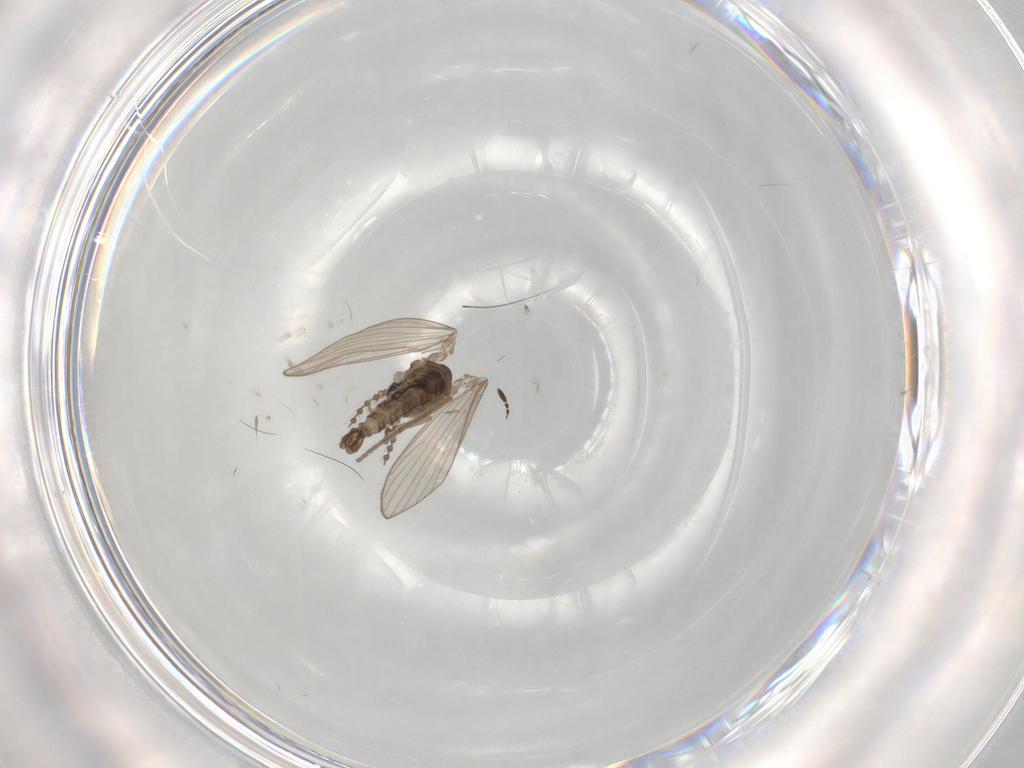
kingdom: Animalia
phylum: Arthropoda
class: Insecta
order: Diptera
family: Psychodidae
